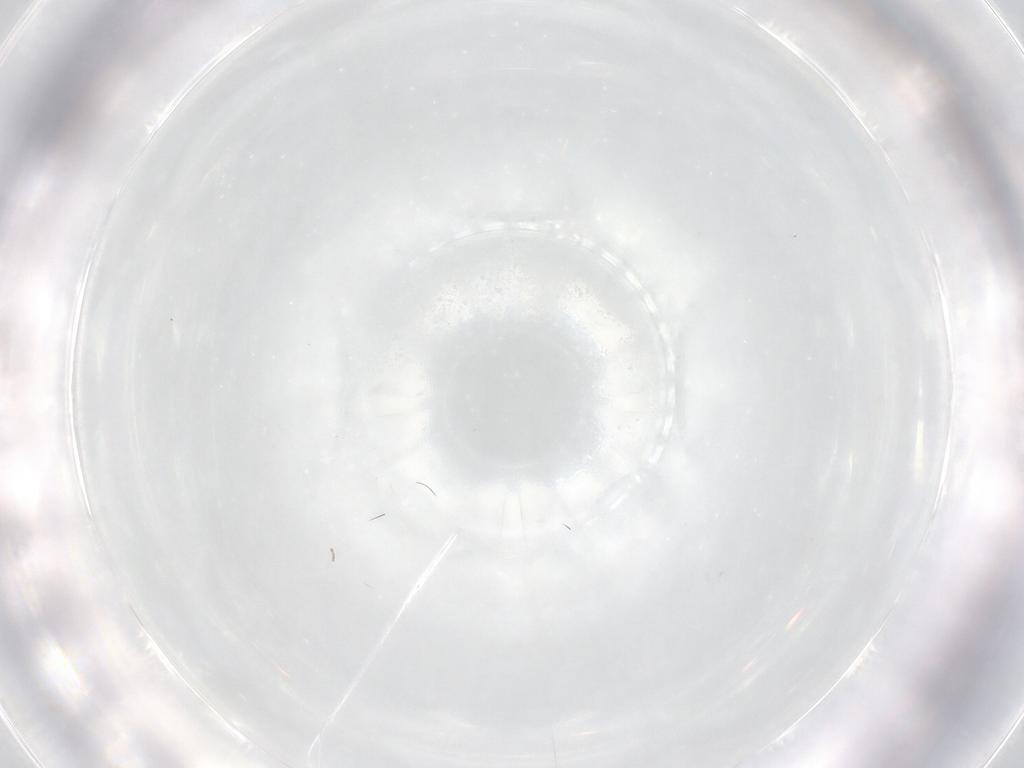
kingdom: Animalia
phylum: Arthropoda
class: Insecta
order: Diptera
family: Cecidomyiidae
